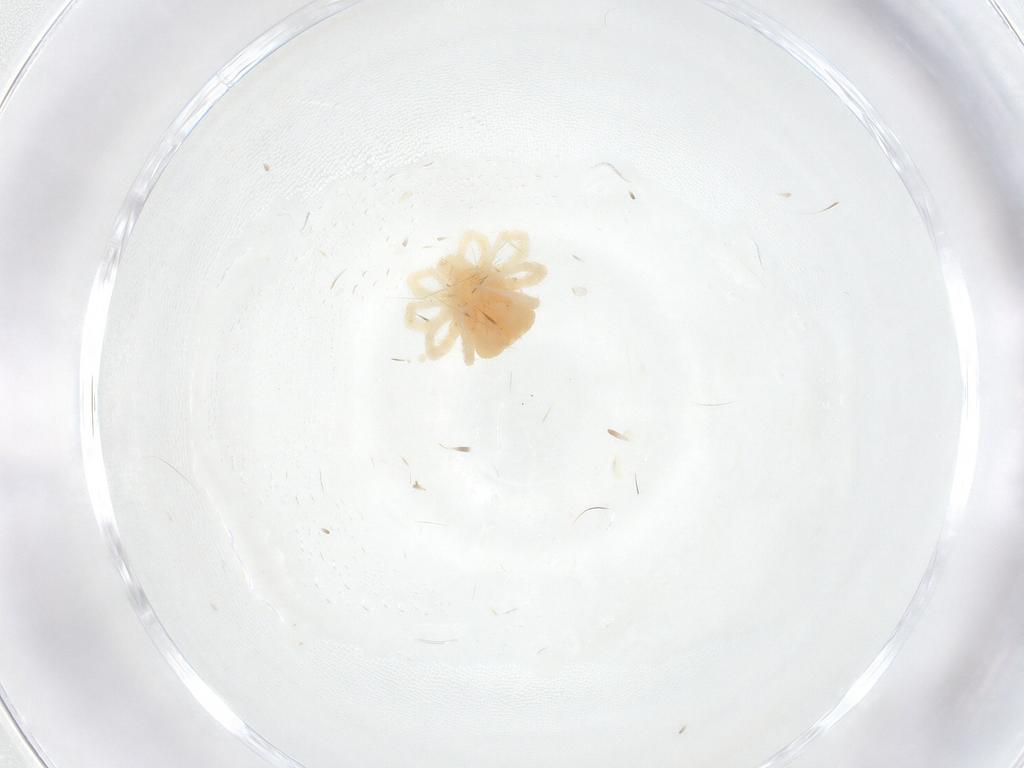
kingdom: Animalia
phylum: Arthropoda
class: Arachnida
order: Trombidiformes
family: Anystidae
